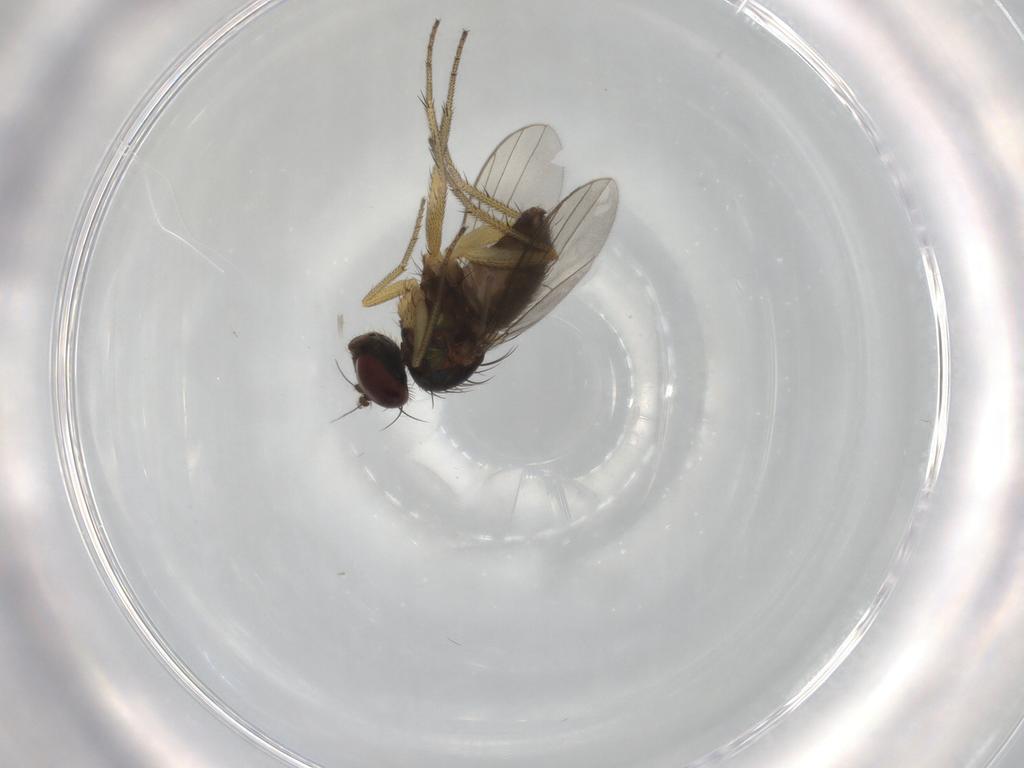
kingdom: Animalia
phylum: Arthropoda
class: Insecta
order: Diptera
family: Dolichopodidae
